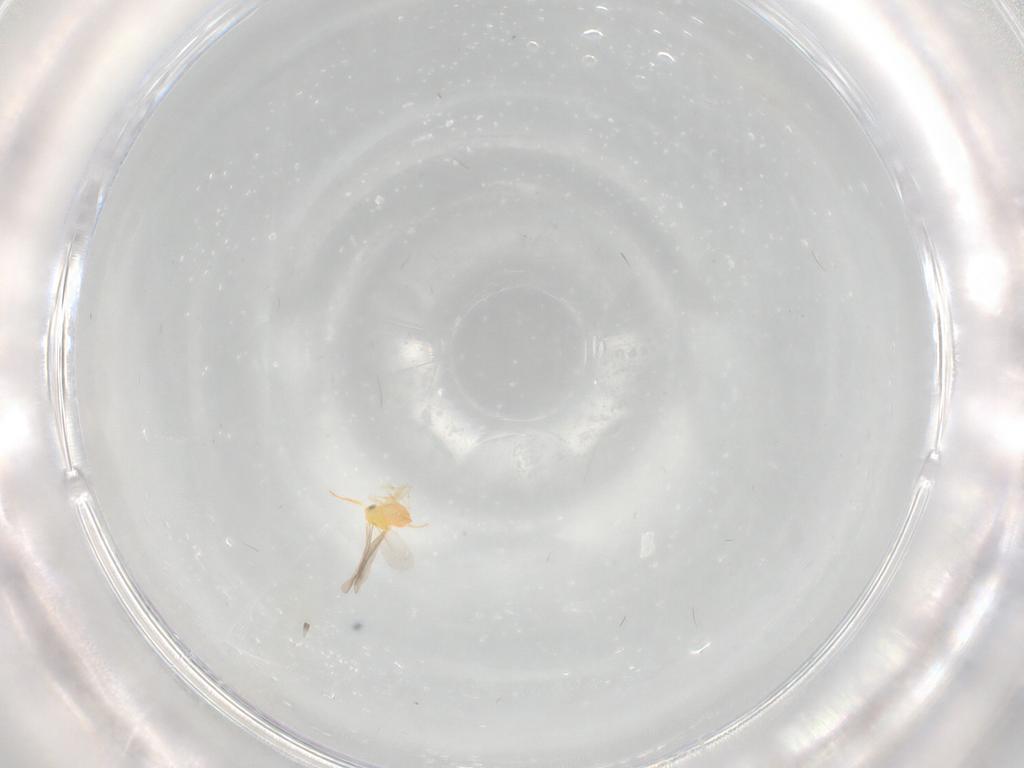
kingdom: Animalia
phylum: Arthropoda
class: Insecta
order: Hemiptera
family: Aleyrodidae
